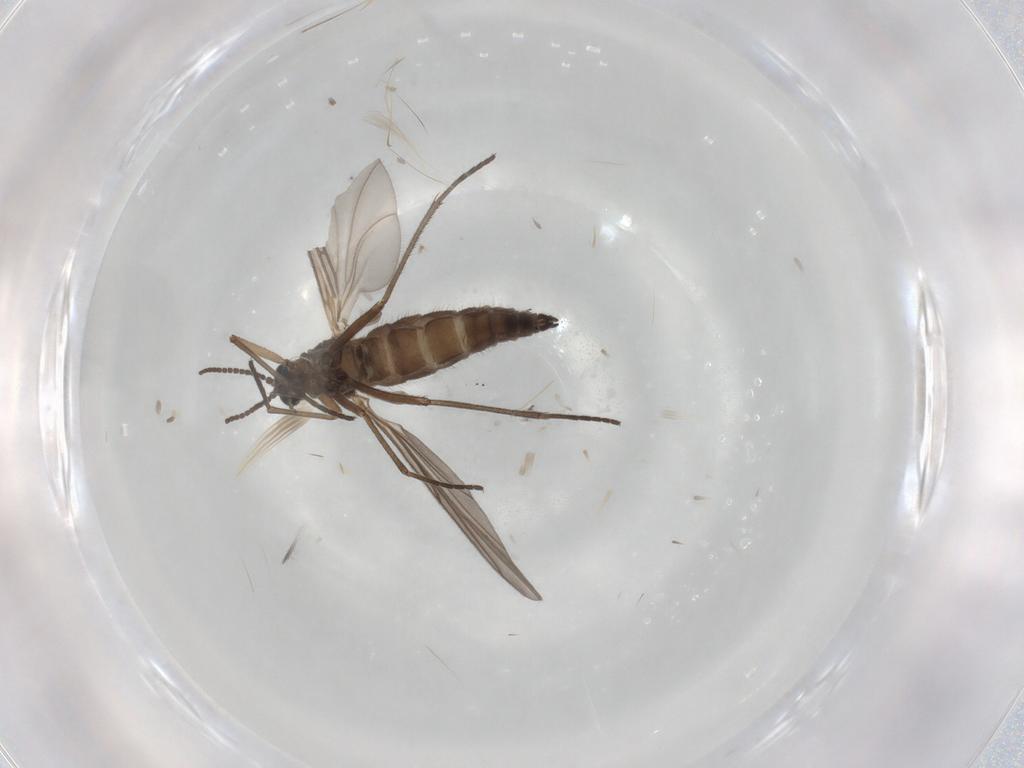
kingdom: Animalia
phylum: Arthropoda
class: Insecta
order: Diptera
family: Sciaridae
